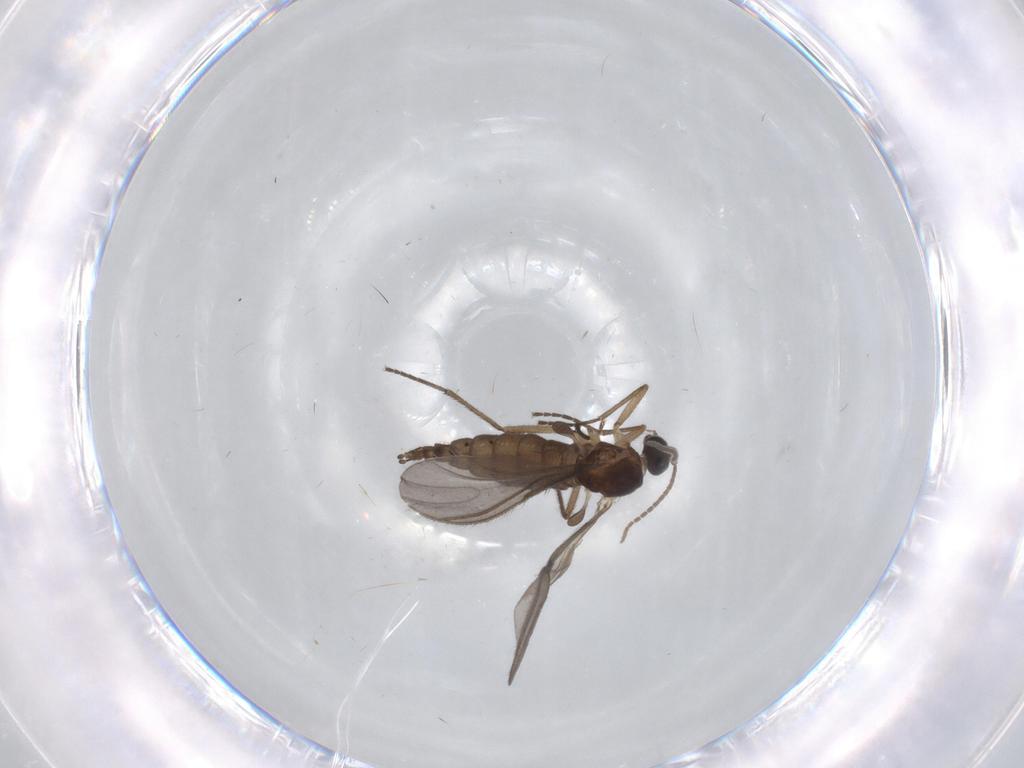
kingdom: Animalia
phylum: Arthropoda
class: Insecta
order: Diptera
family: Sciaridae
